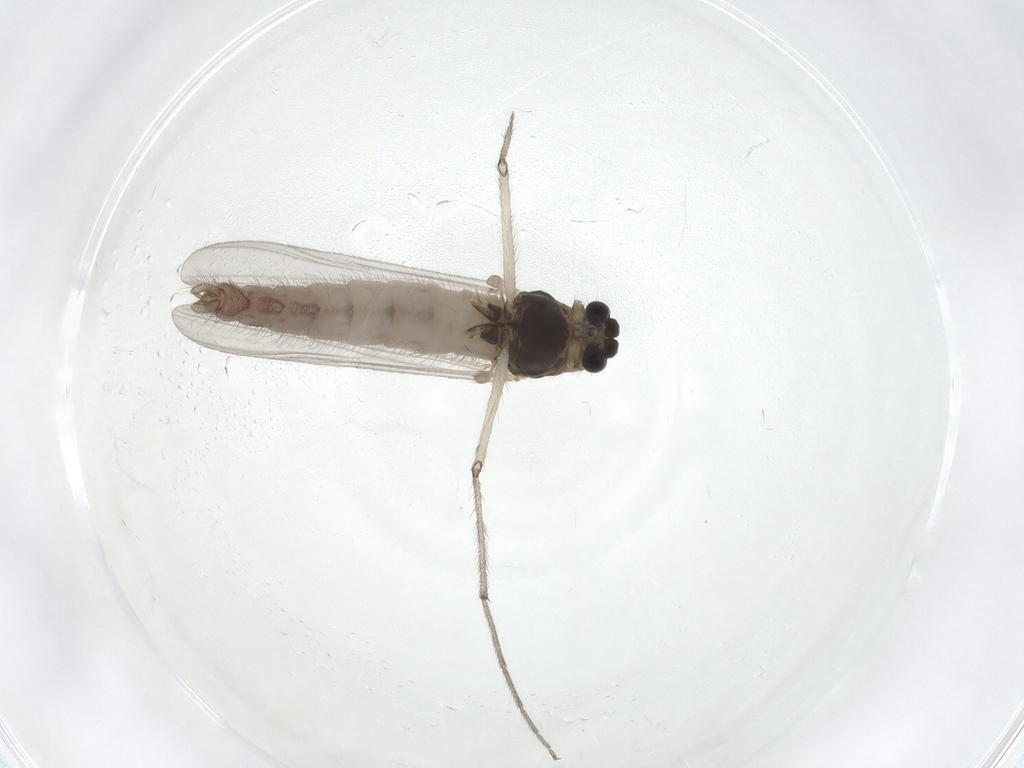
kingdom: Animalia
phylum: Arthropoda
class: Insecta
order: Diptera
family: Chironomidae
